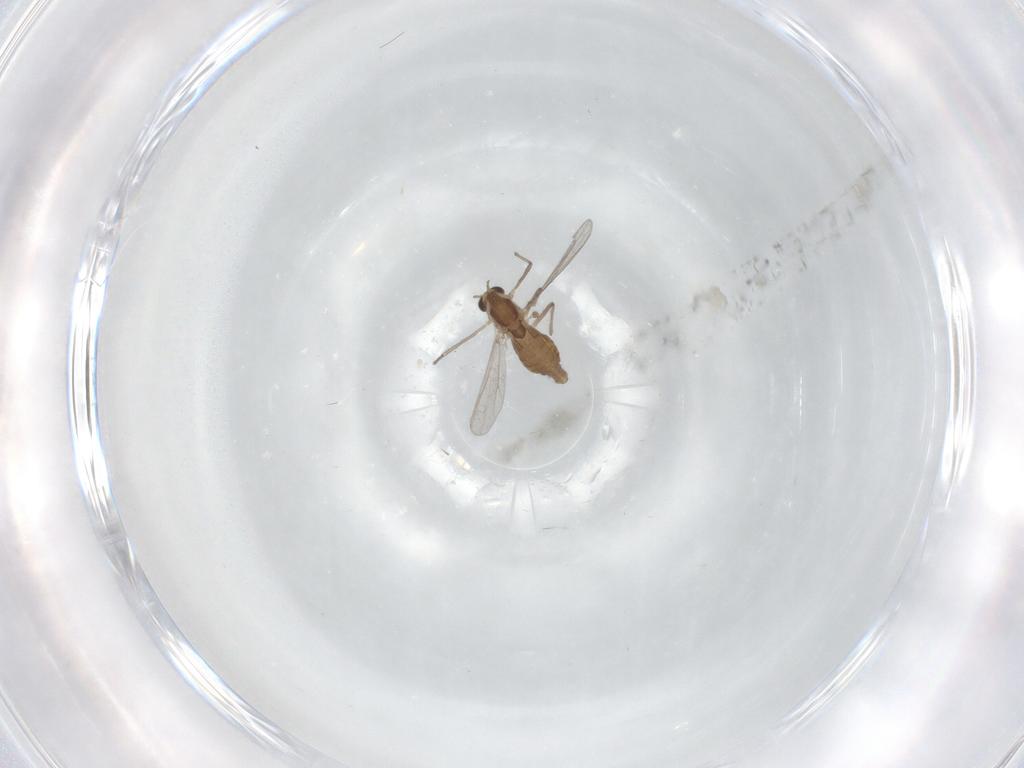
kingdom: Animalia
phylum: Arthropoda
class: Insecta
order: Diptera
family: Chironomidae
